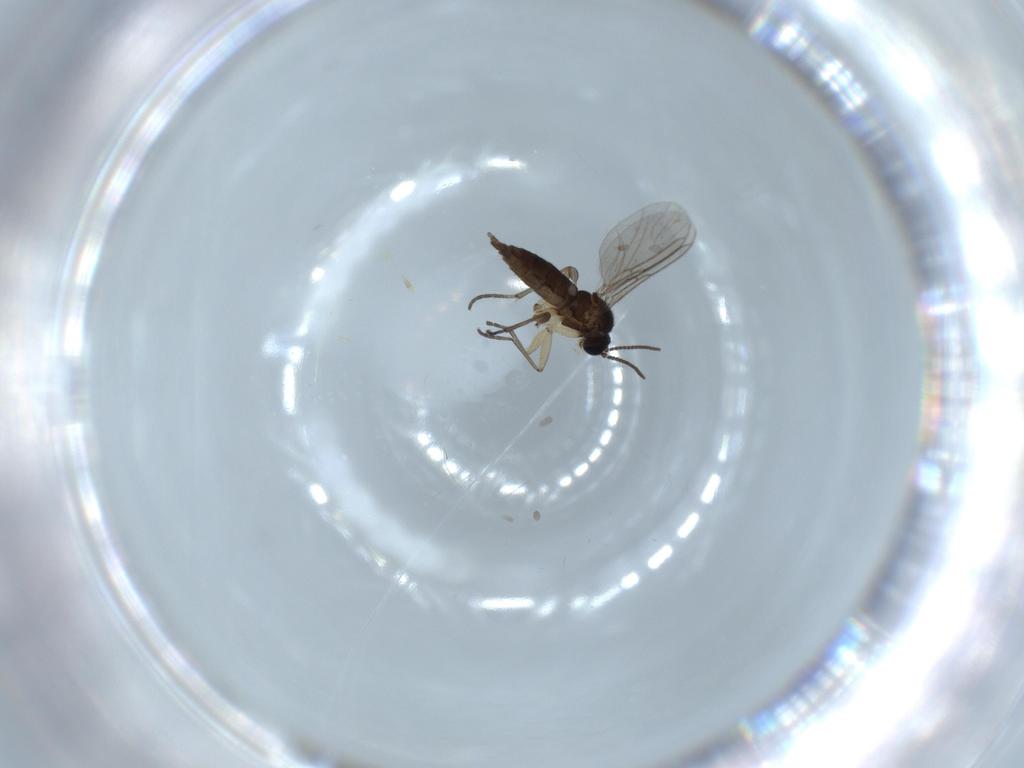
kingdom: Animalia
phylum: Arthropoda
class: Insecta
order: Diptera
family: Sciaridae
